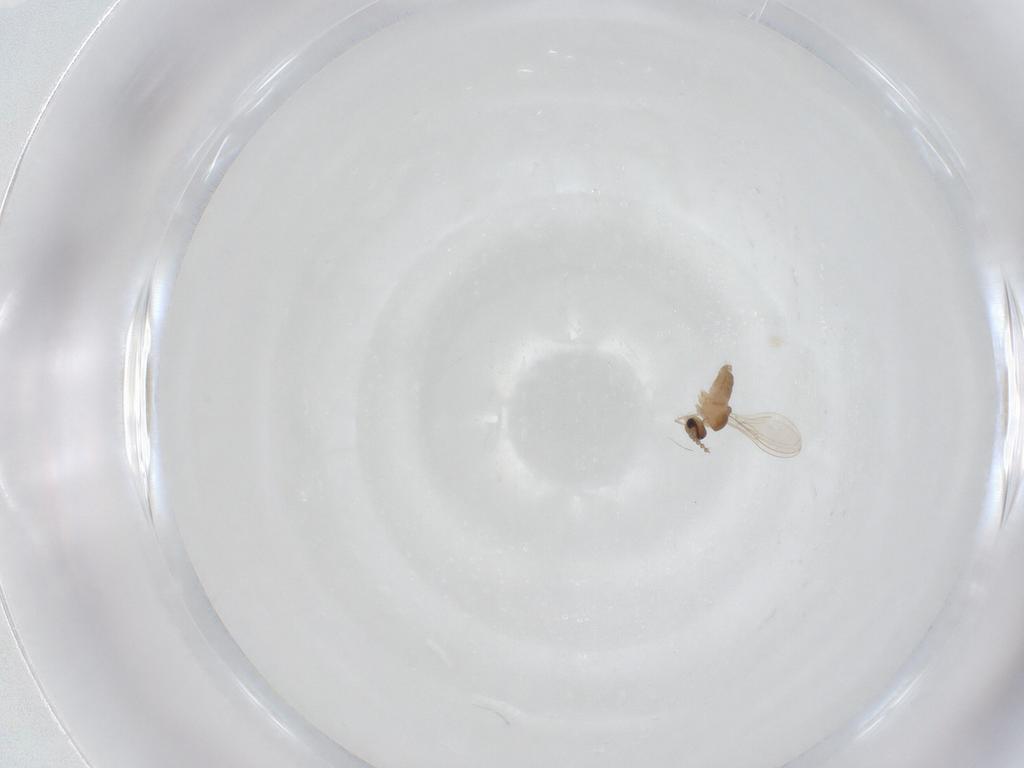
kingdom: Animalia
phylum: Arthropoda
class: Insecta
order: Diptera
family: Cecidomyiidae
